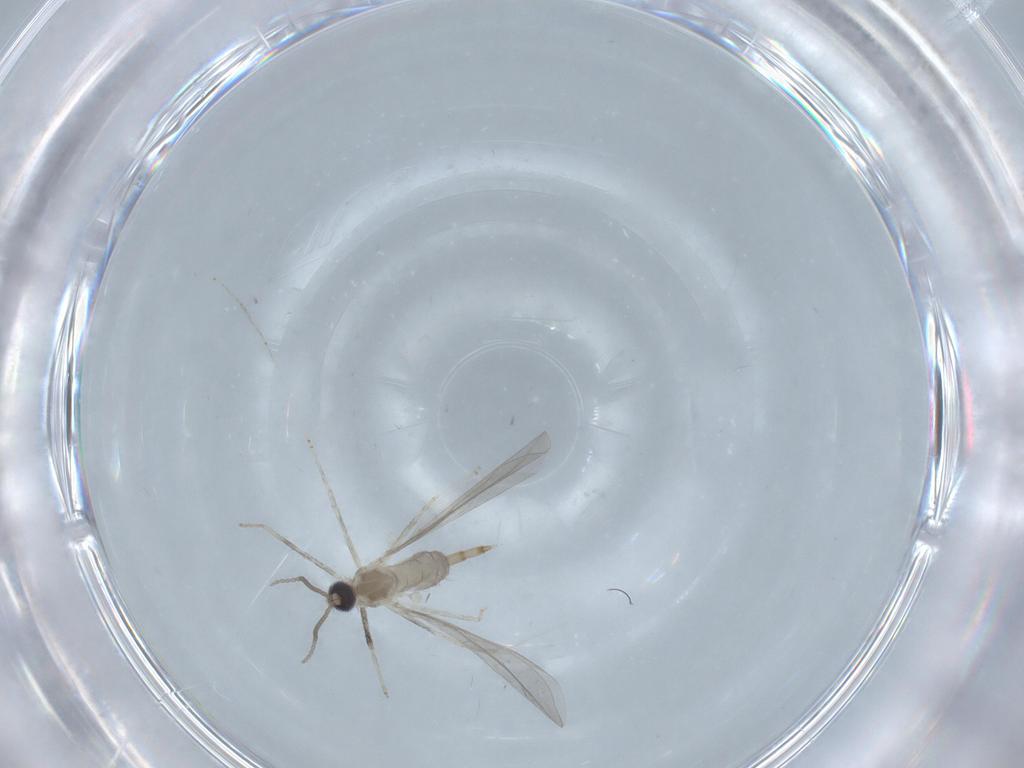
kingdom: Animalia
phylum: Arthropoda
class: Insecta
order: Diptera
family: Cecidomyiidae
